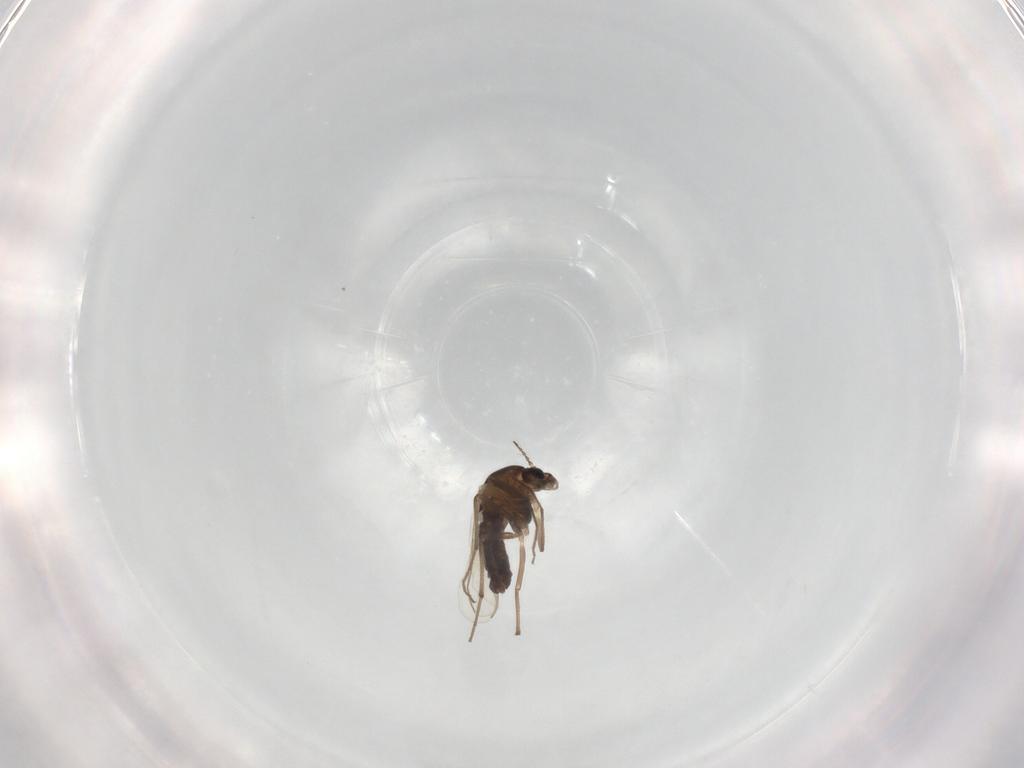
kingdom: Animalia
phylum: Arthropoda
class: Insecta
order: Diptera
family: Chironomidae
